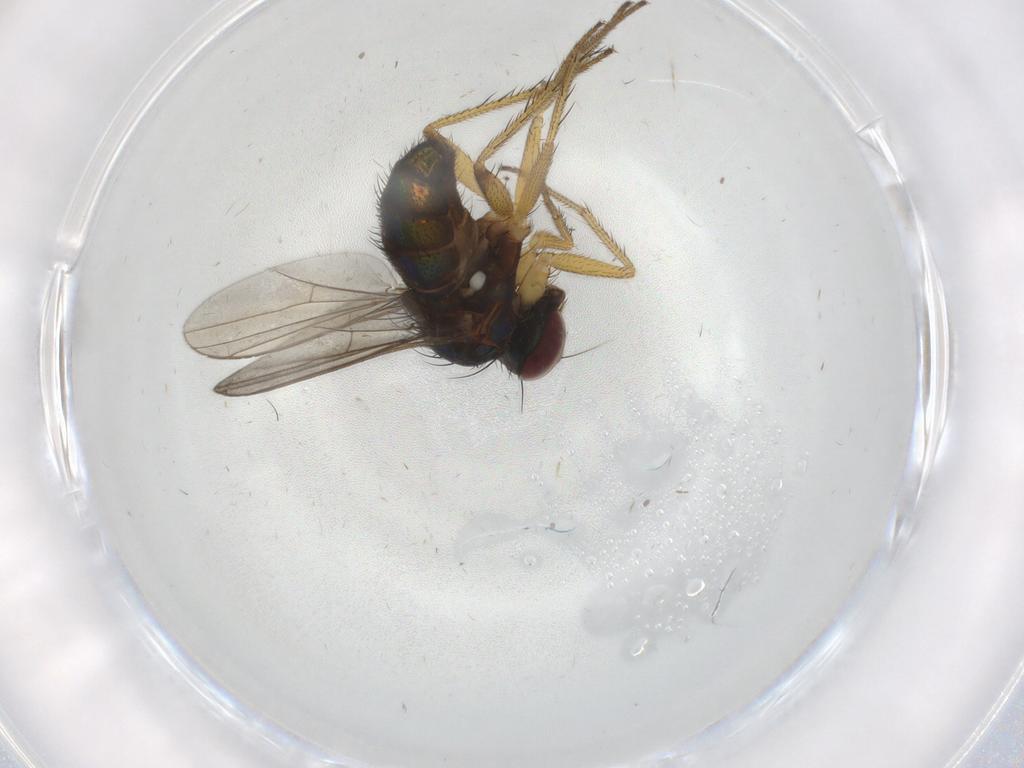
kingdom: Animalia
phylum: Arthropoda
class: Insecta
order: Diptera
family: Dolichopodidae
